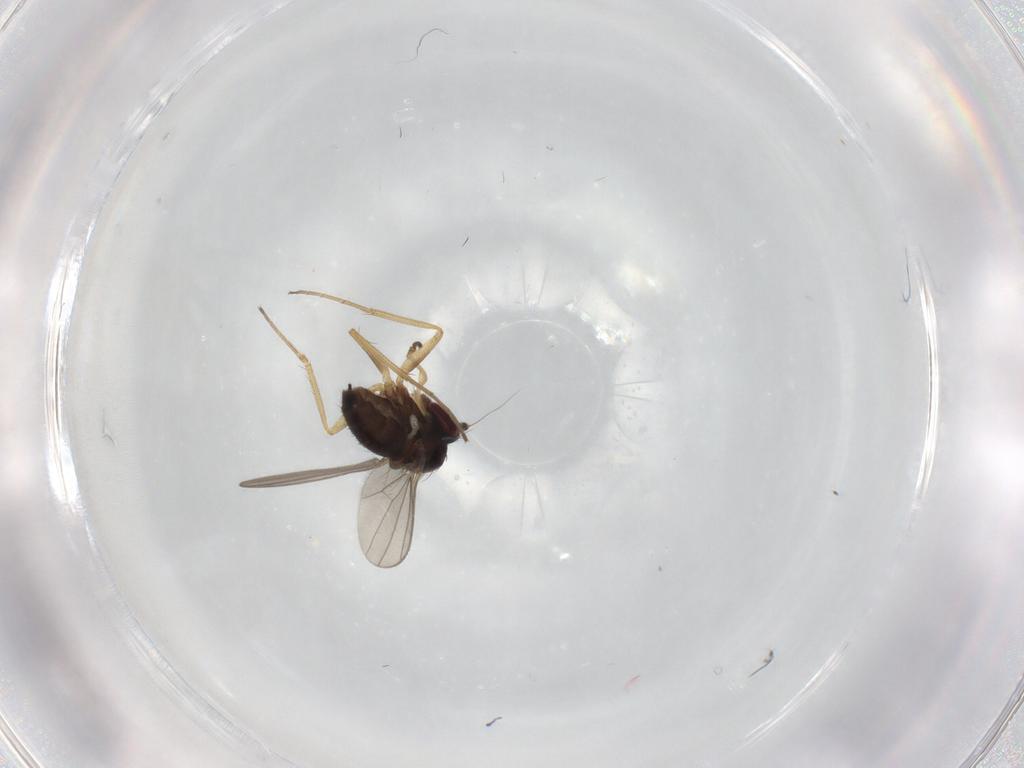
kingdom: Animalia
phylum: Arthropoda
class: Insecta
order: Diptera
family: Dolichopodidae
